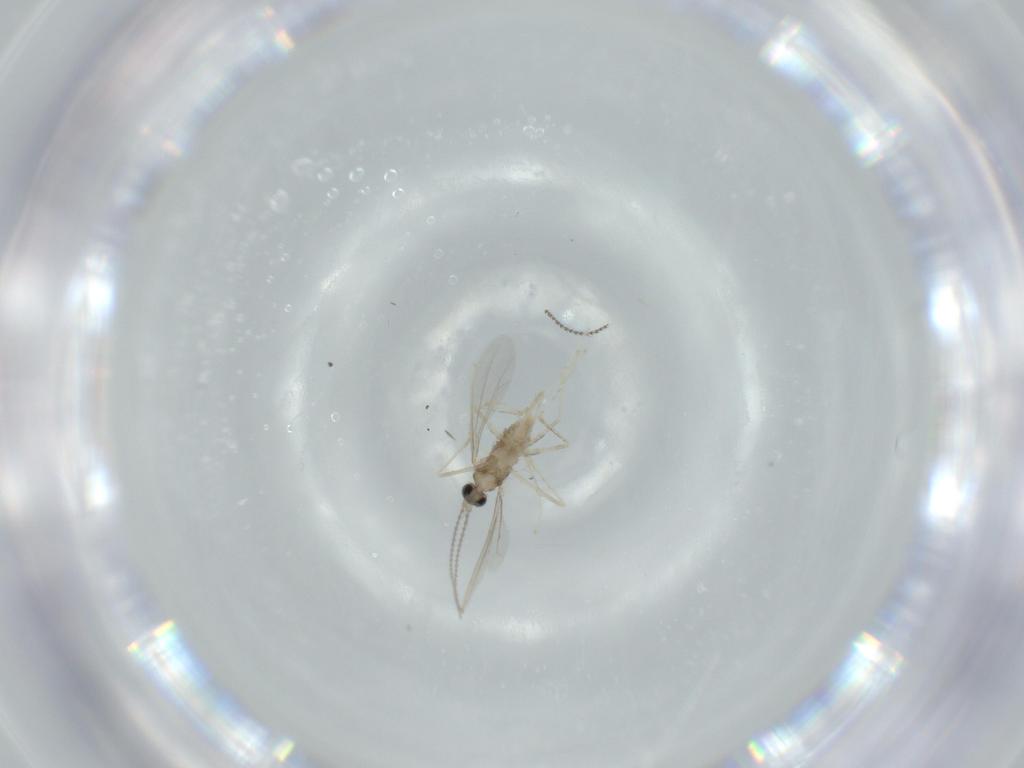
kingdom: Animalia
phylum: Arthropoda
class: Insecta
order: Diptera
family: Cecidomyiidae
